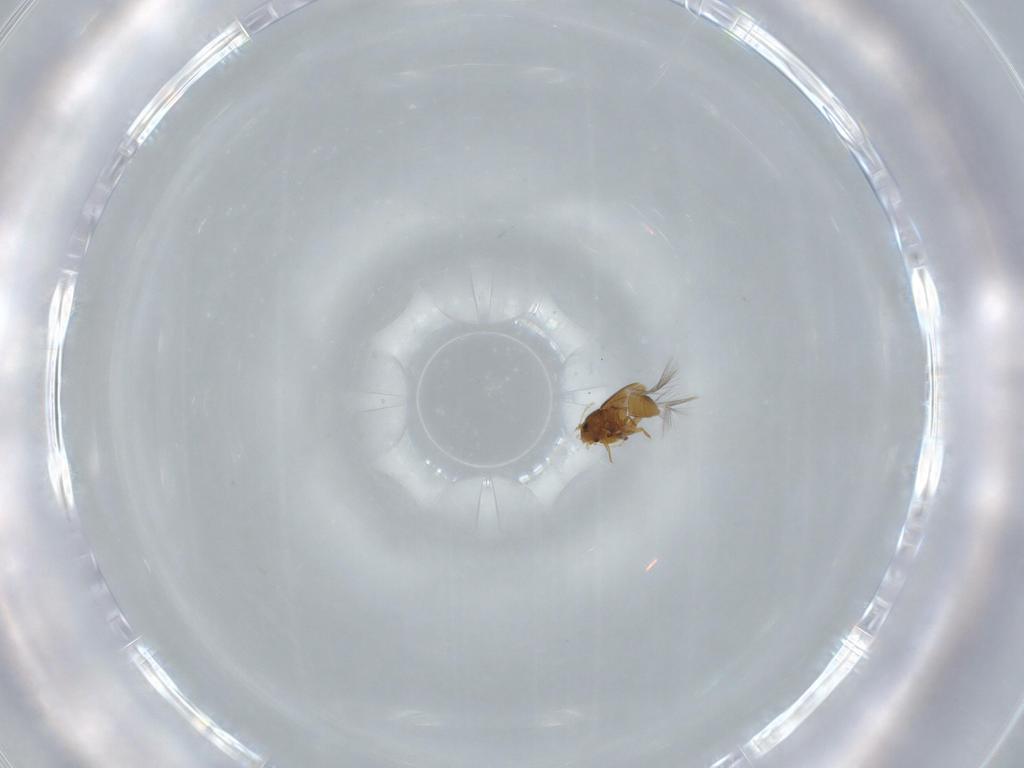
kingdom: Animalia
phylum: Arthropoda
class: Insecta
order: Coleoptera
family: Ptiliidae
